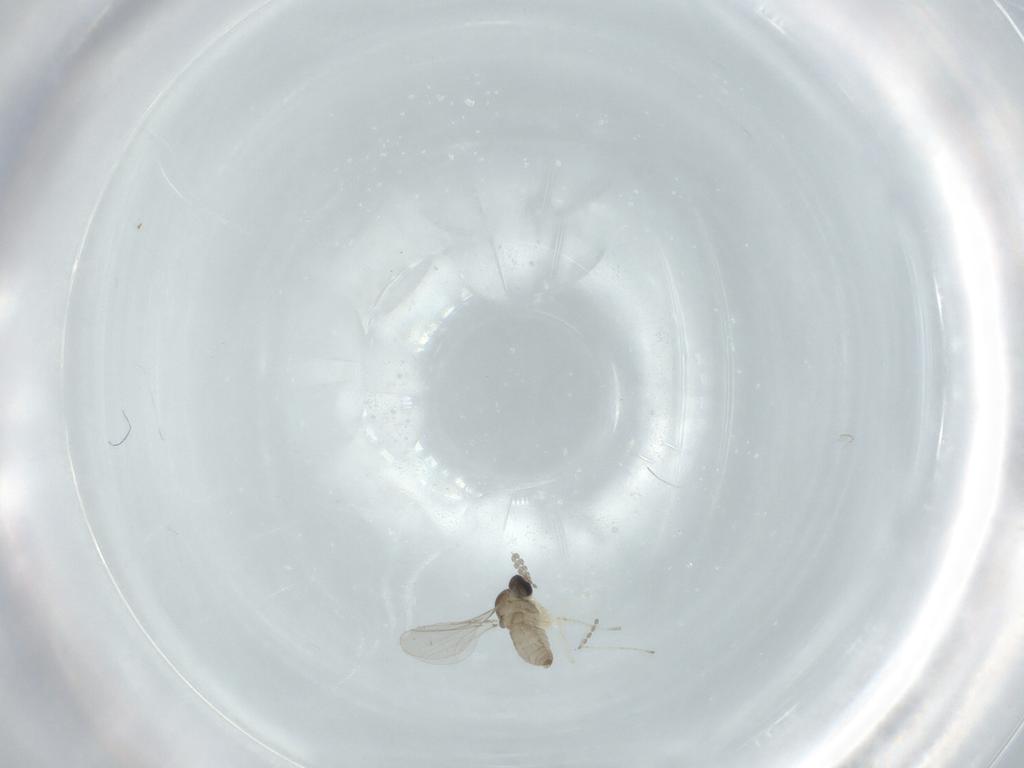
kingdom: Animalia
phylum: Arthropoda
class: Insecta
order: Diptera
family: Cecidomyiidae
